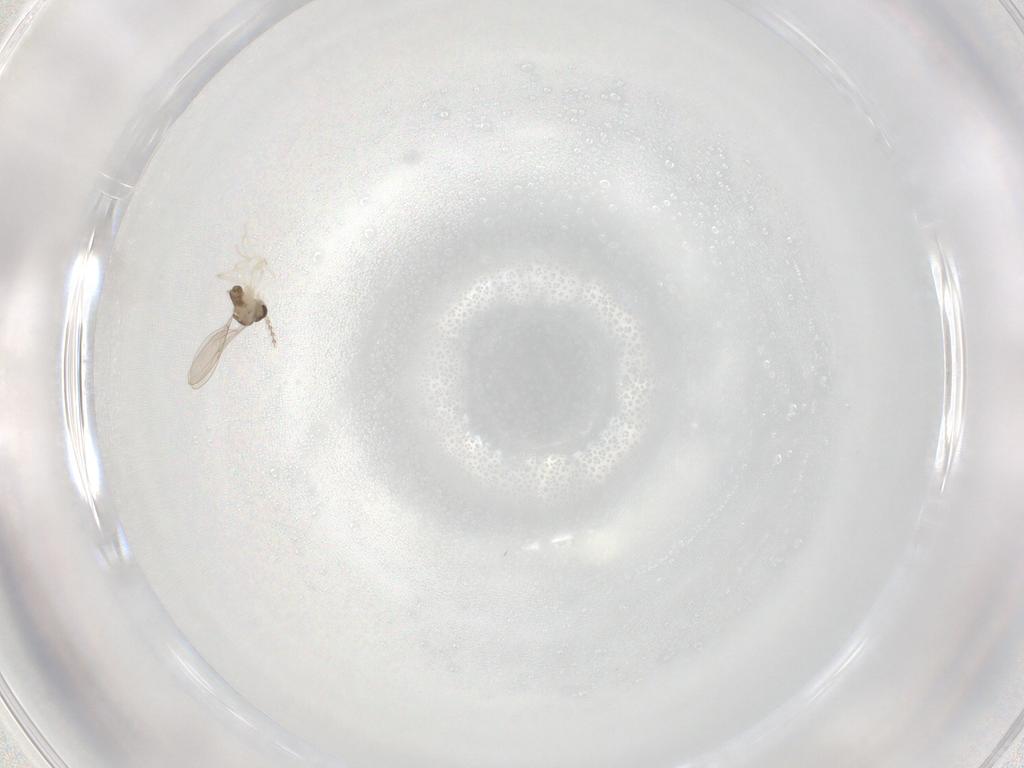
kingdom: Animalia
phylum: Arthropoda
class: Insecta
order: Diptera
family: Cecidomyiidae
